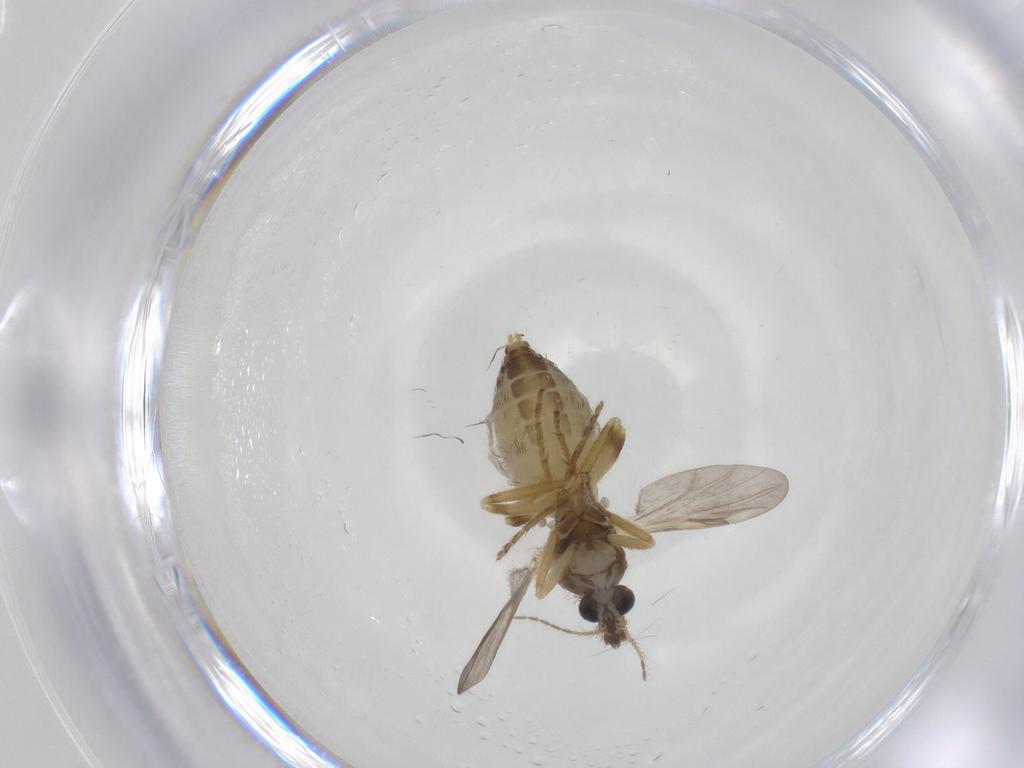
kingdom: Animalia
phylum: Arthropoda
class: Insecta
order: Diptera
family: Ceratopogonidae
